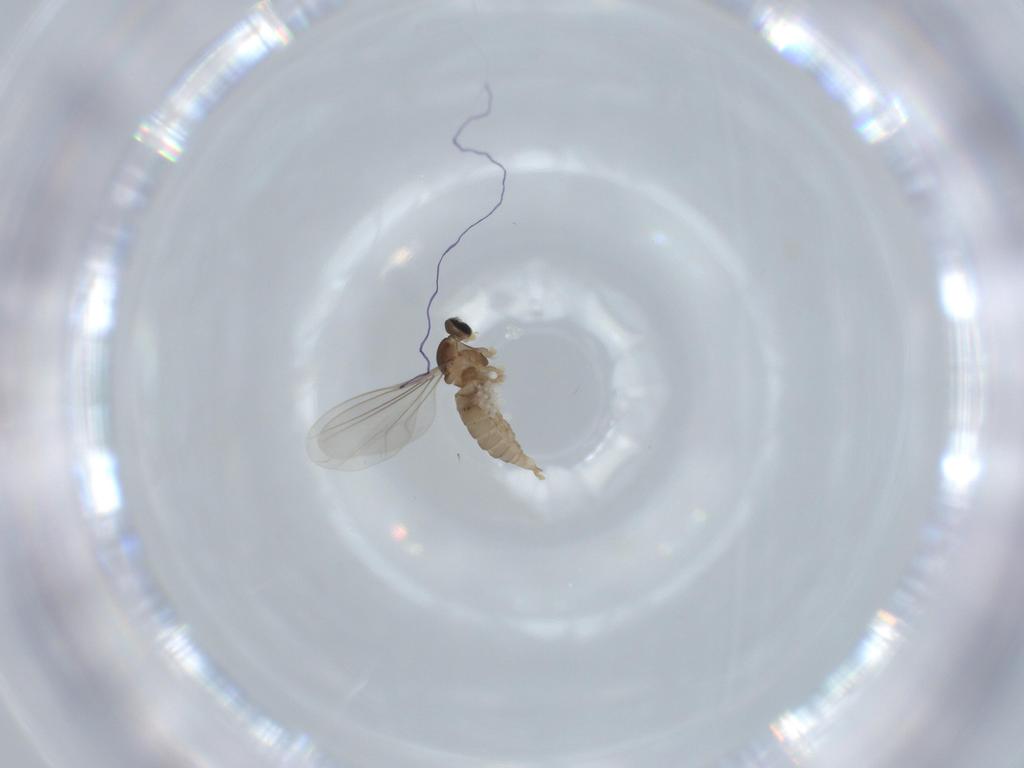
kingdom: Animalia
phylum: Arthropoda
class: Insecta
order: Diptera
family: Cecidomyiidae
